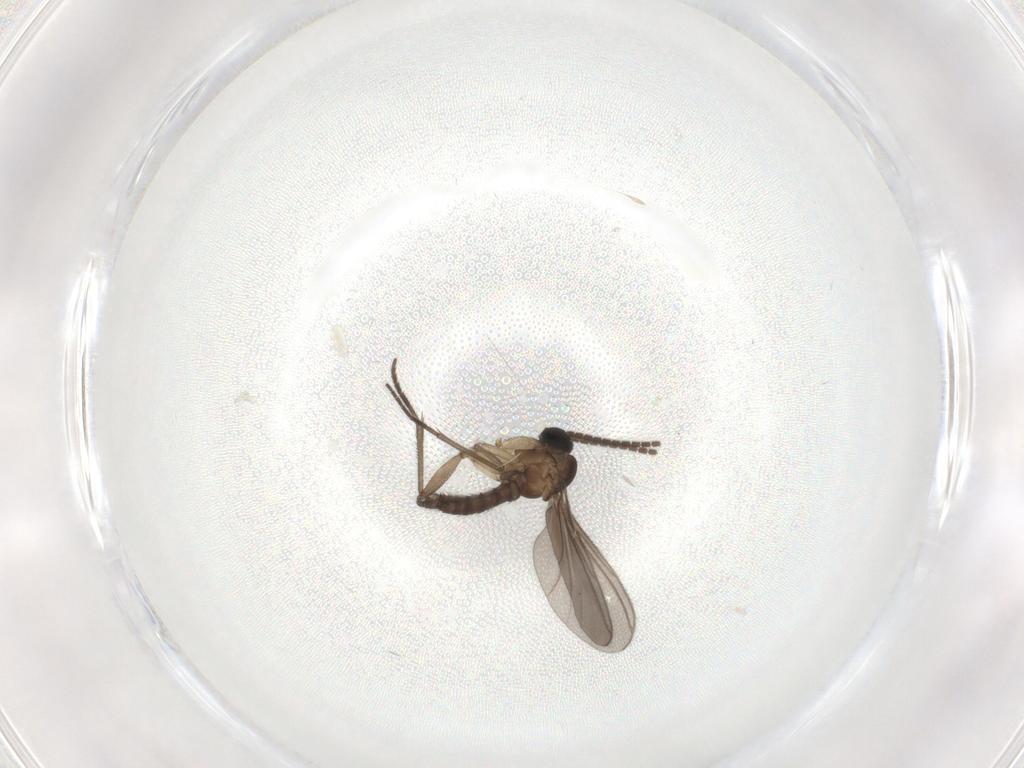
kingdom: Animalia
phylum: Arthropoda
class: Insecta
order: Diptera
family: Sciaridae
